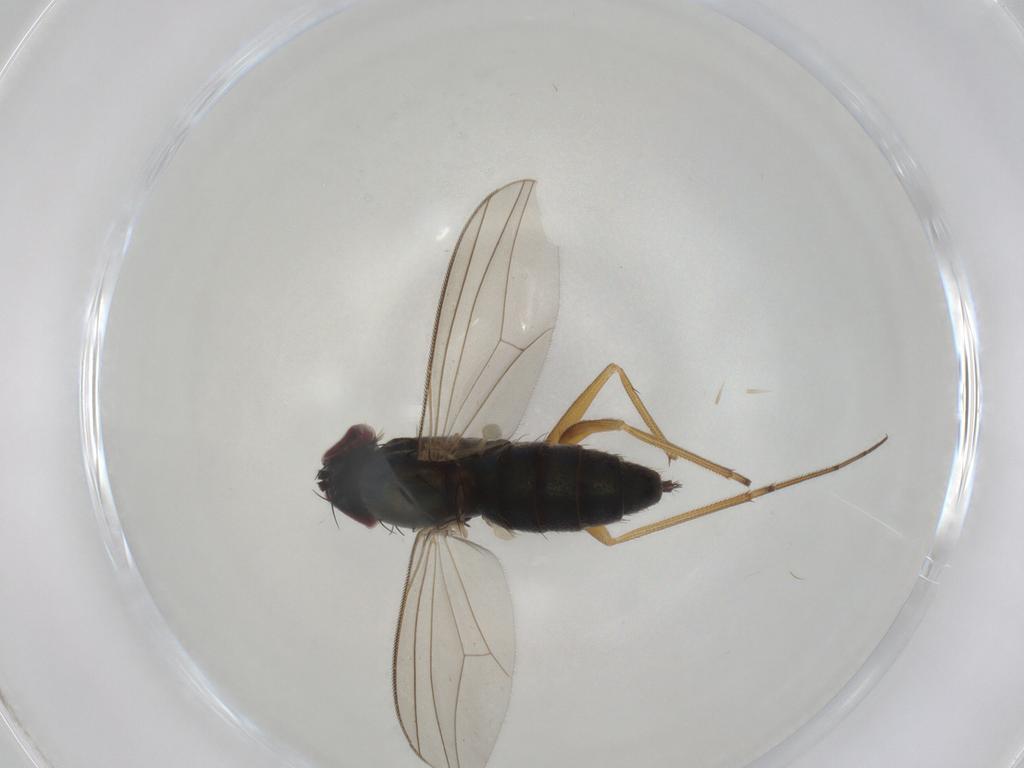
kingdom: Animalia
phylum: Arthropoda
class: Insecta
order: Diptera
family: Dolichopodidae
